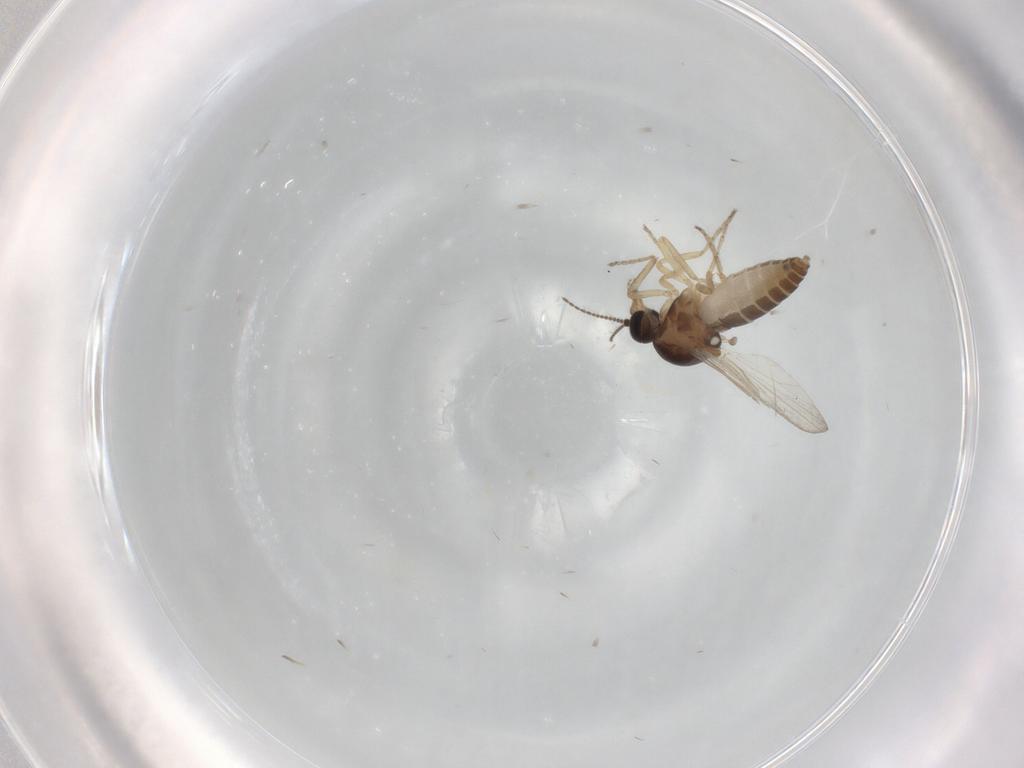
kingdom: Animalia
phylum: Arthropoda
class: Insecta
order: Diptera
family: Ceratopogonidae
